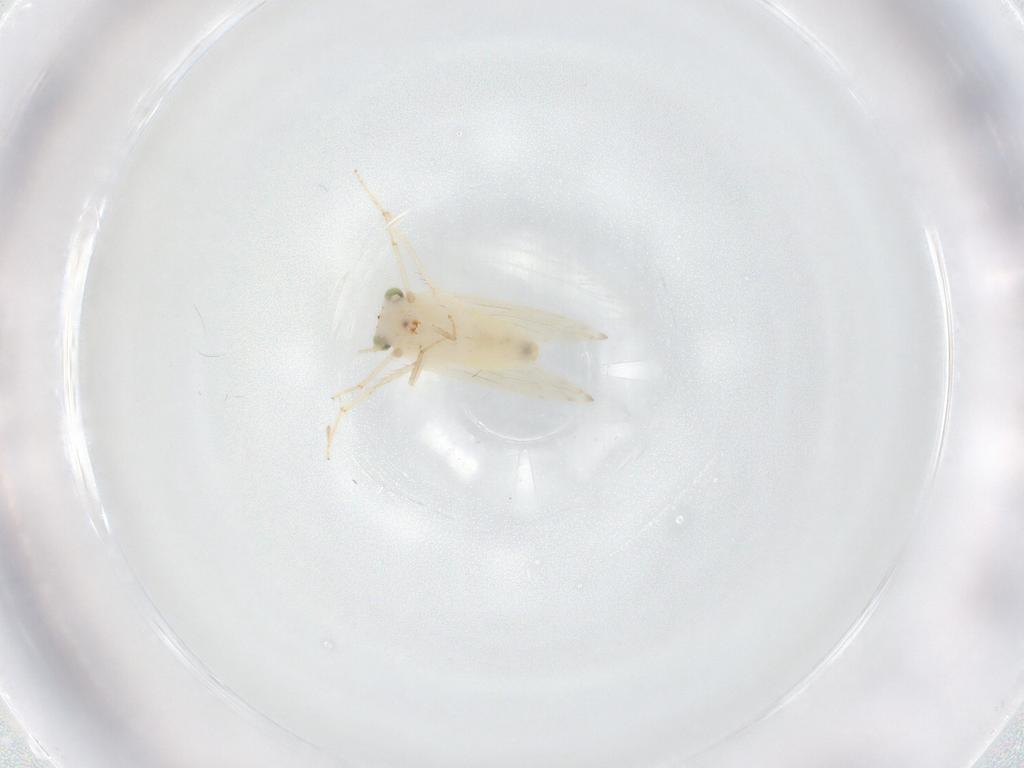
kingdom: Animalia
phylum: Arthropoda
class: Insecta
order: Psocodea
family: Lepidopsocidae
